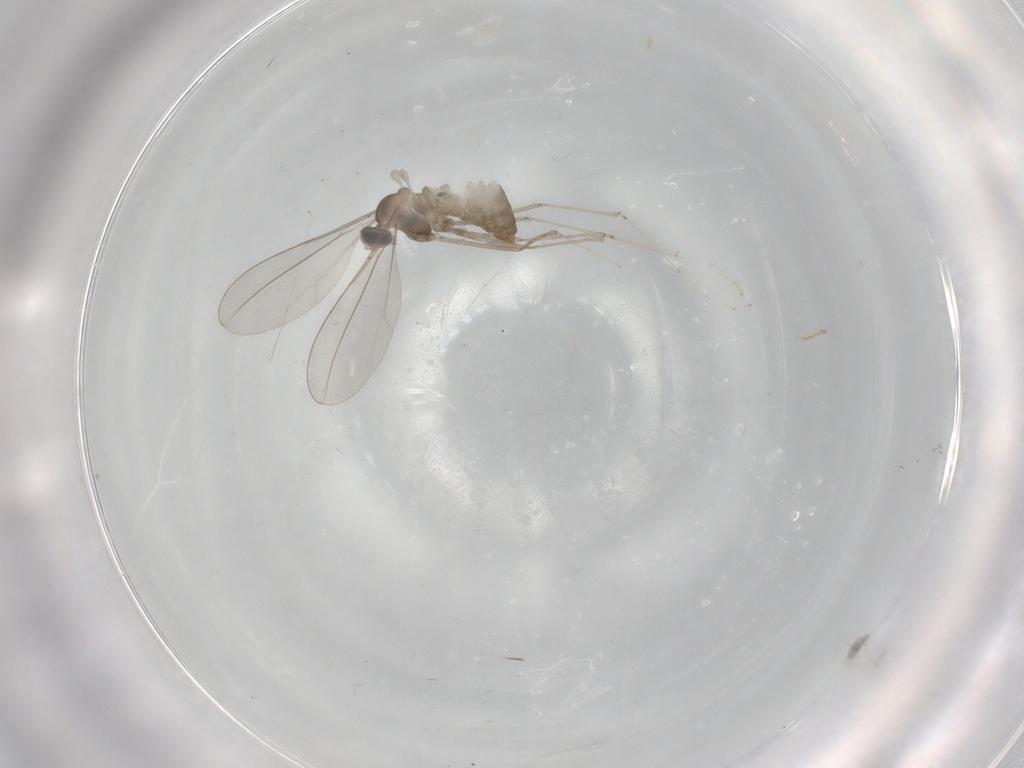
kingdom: Animalia
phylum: Arthropoda
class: Insecta
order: Diptera
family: Cecidomyiidae
